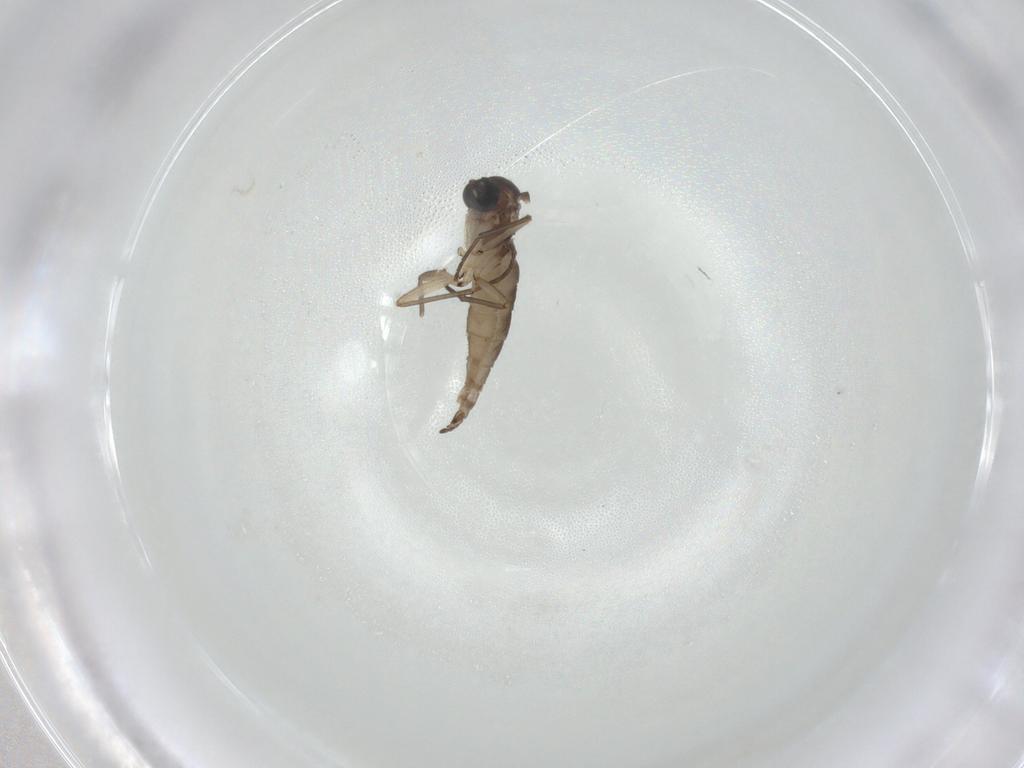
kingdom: Animalia
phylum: Arthropoda
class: Insecta
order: Diptera
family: Sciaridae
